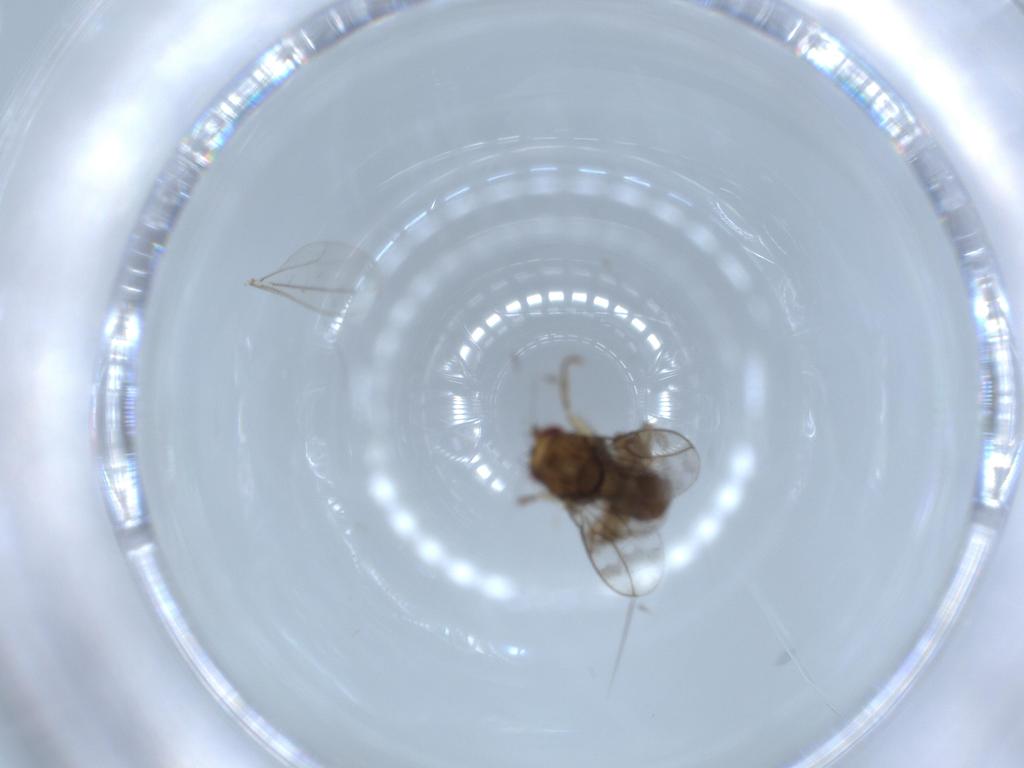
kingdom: Animalia
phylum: Arthropoda
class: Insecta
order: Diptera
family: Sphaeroceridae
